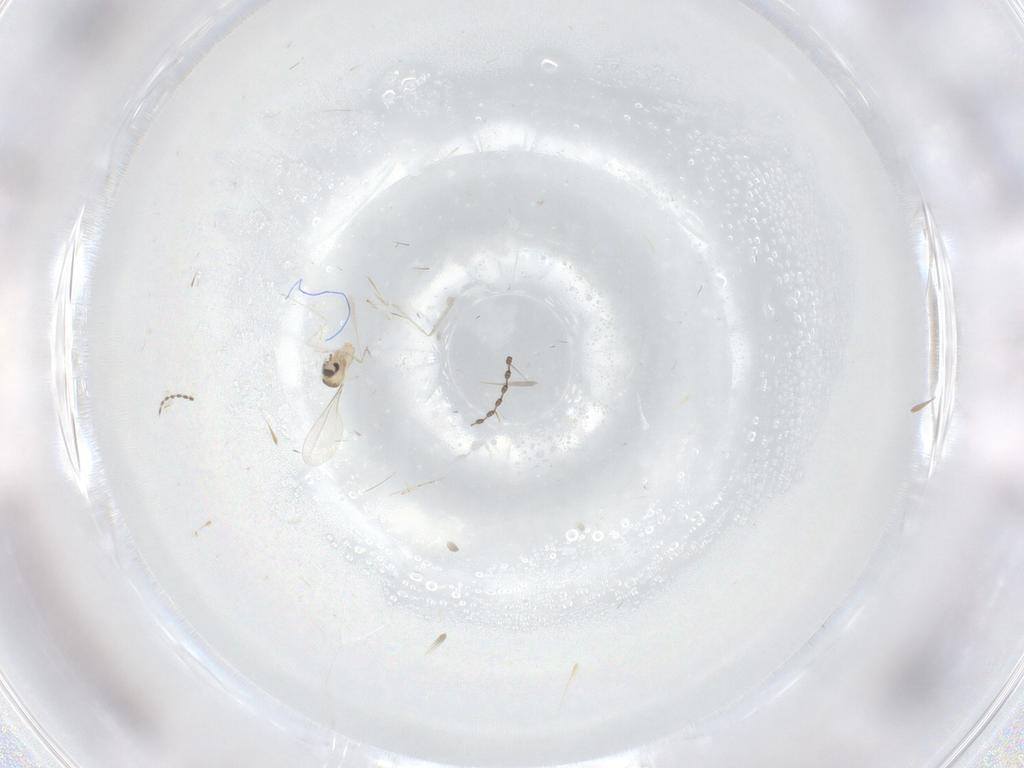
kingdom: Animalia
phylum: Arthropoda
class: Insecta
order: Diptera
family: Cecidomyiidae
